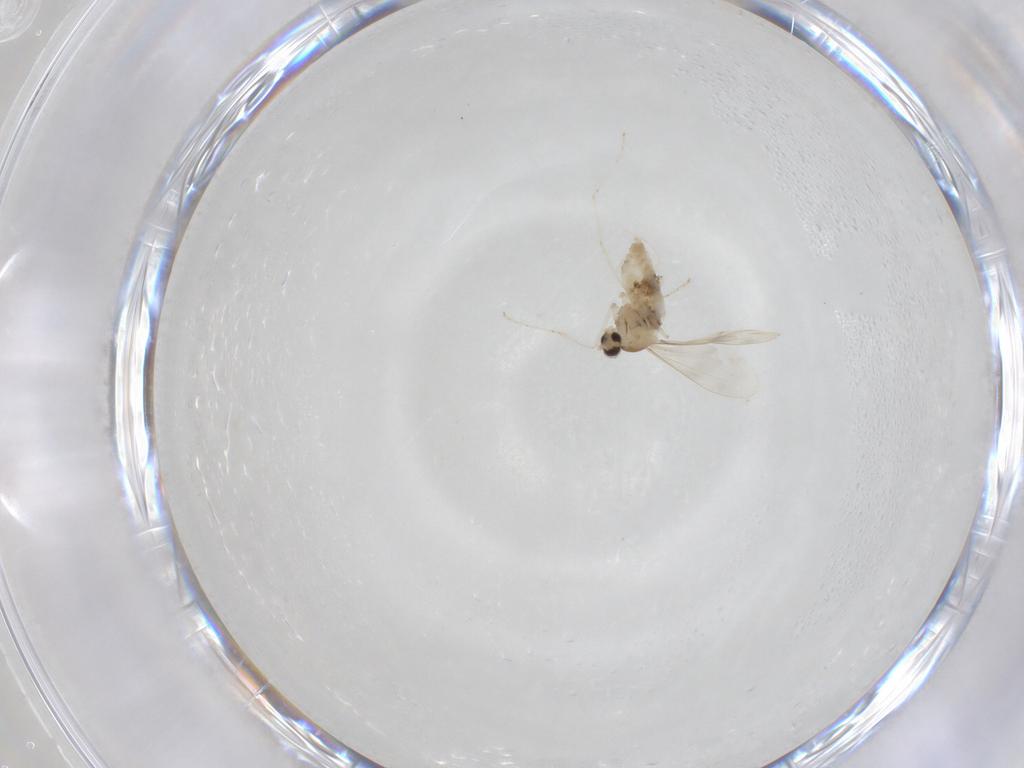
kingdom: Animalia
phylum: Arthropoda
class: Insecta
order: Diptera
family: Cecidomyiidae
